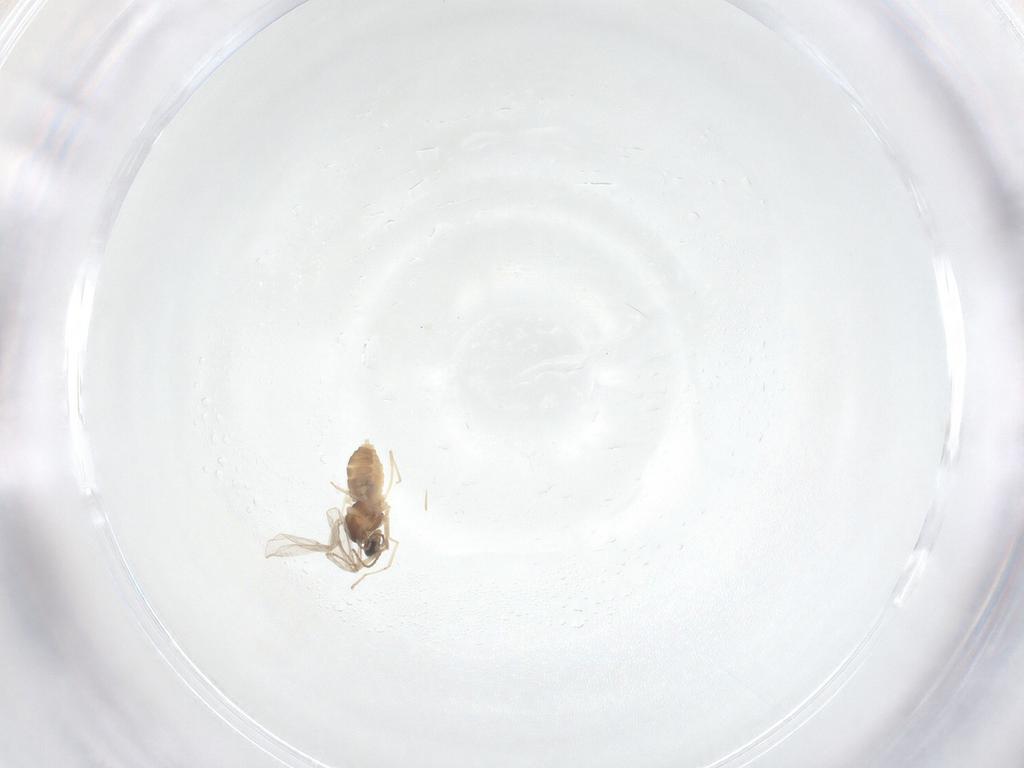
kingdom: Animalia
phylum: Arthropoda
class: Insecta
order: Diptera
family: Cecidomyiidae
